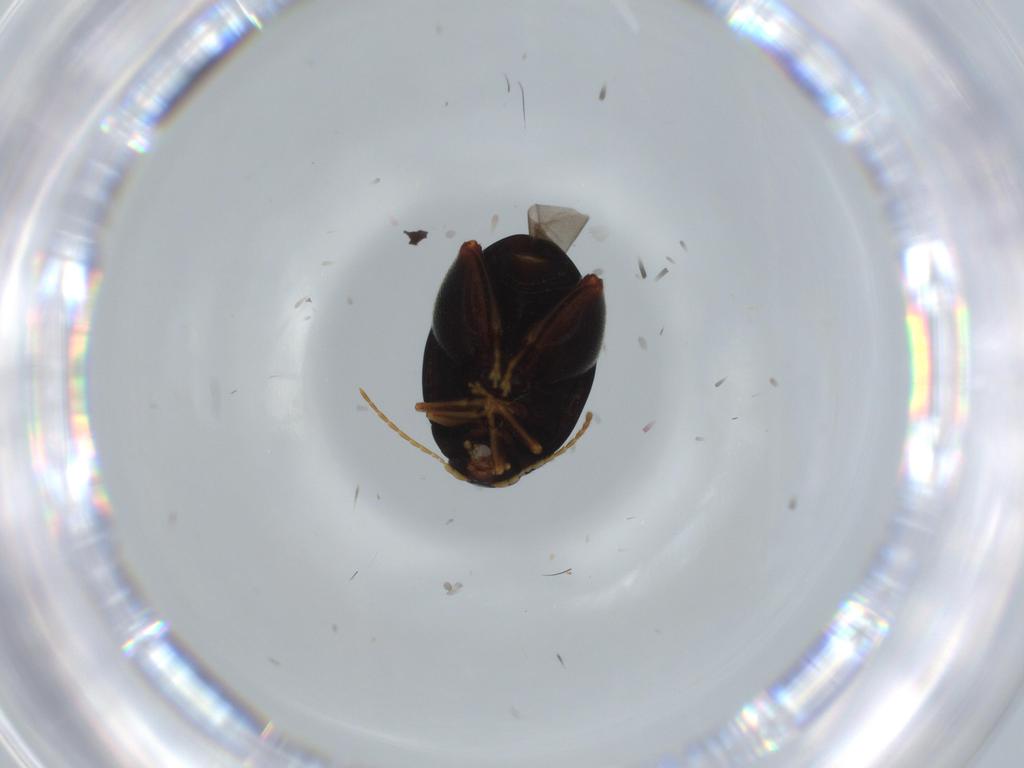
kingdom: Animalia
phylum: Arthropoda
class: Insecta
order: Coleoptera
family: Chrysomelidae
